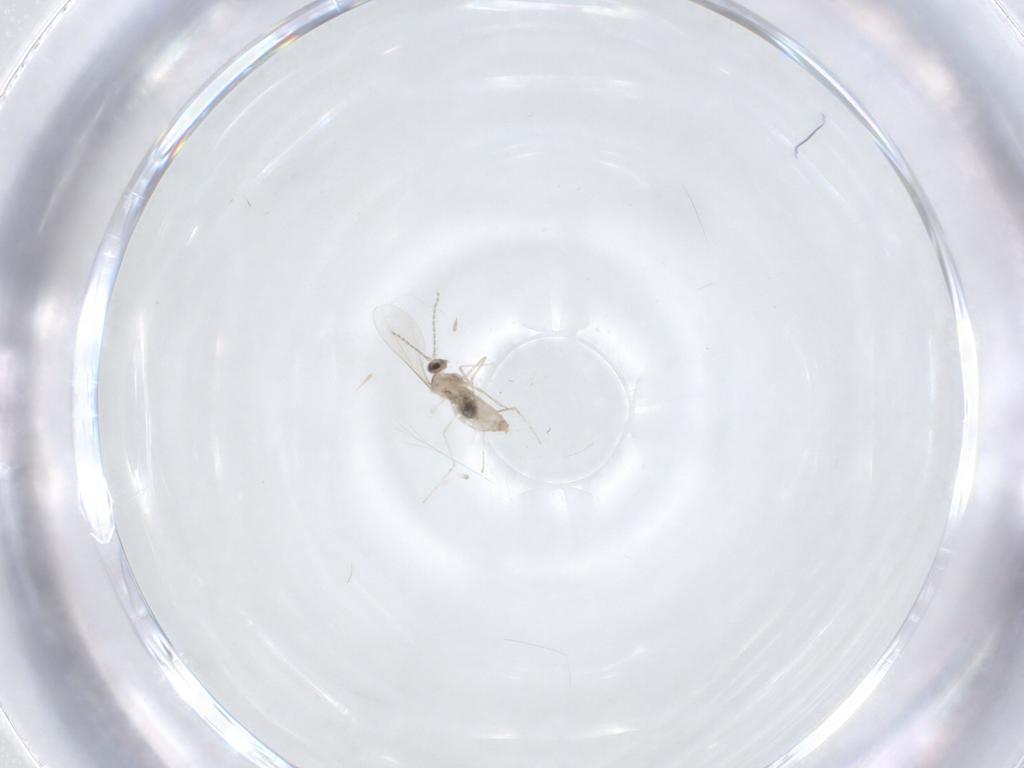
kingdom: Animalia
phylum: Arthropoda
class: Insecta
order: Diptera
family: Cecidomyiidae
